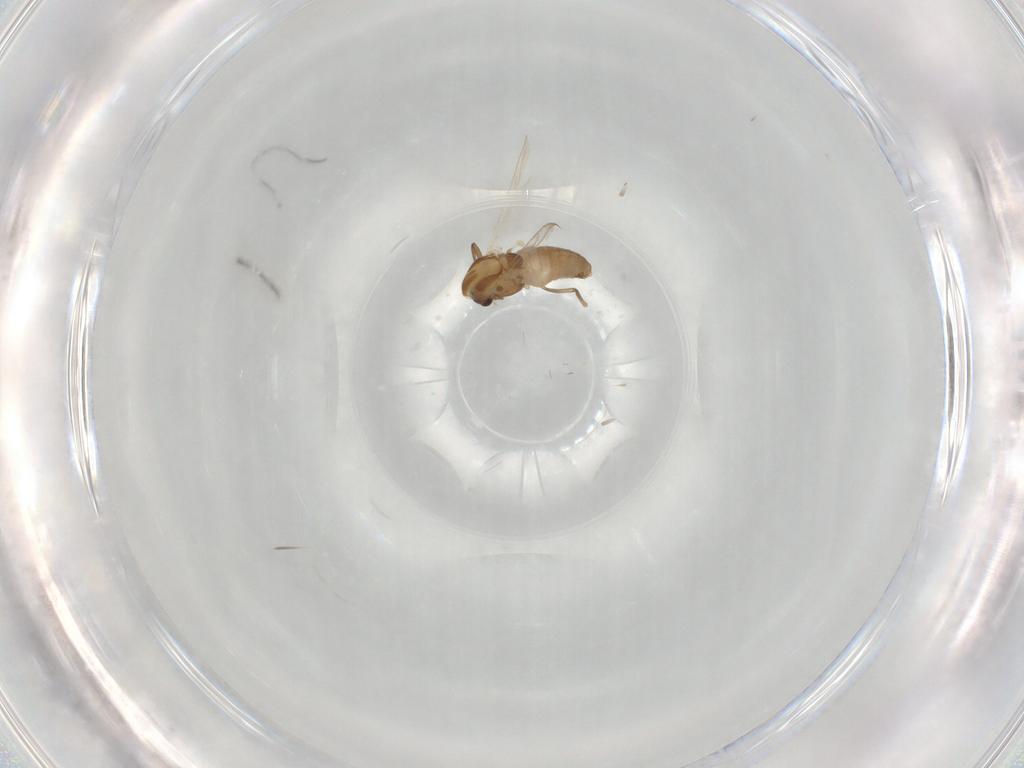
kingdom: Animalia
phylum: Arthropoda
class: Insecta
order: Diptera
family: Chironomidae
